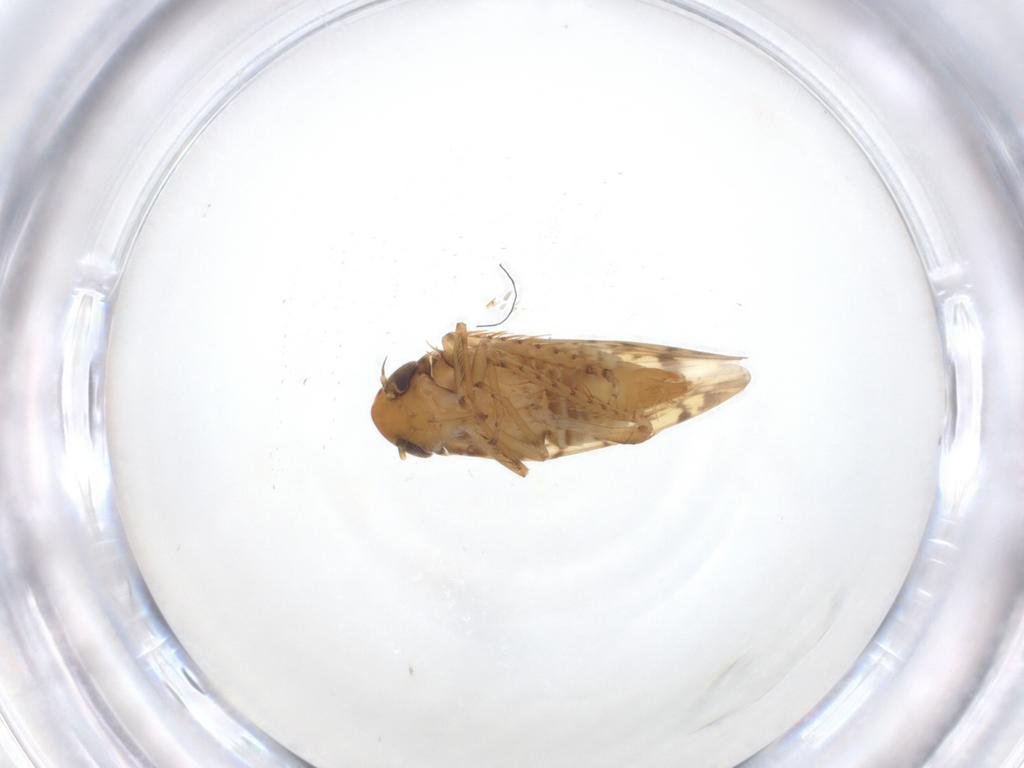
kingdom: Animalia
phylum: Arthropoda
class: Insecta
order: Hemiptera
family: Cicadellidae
